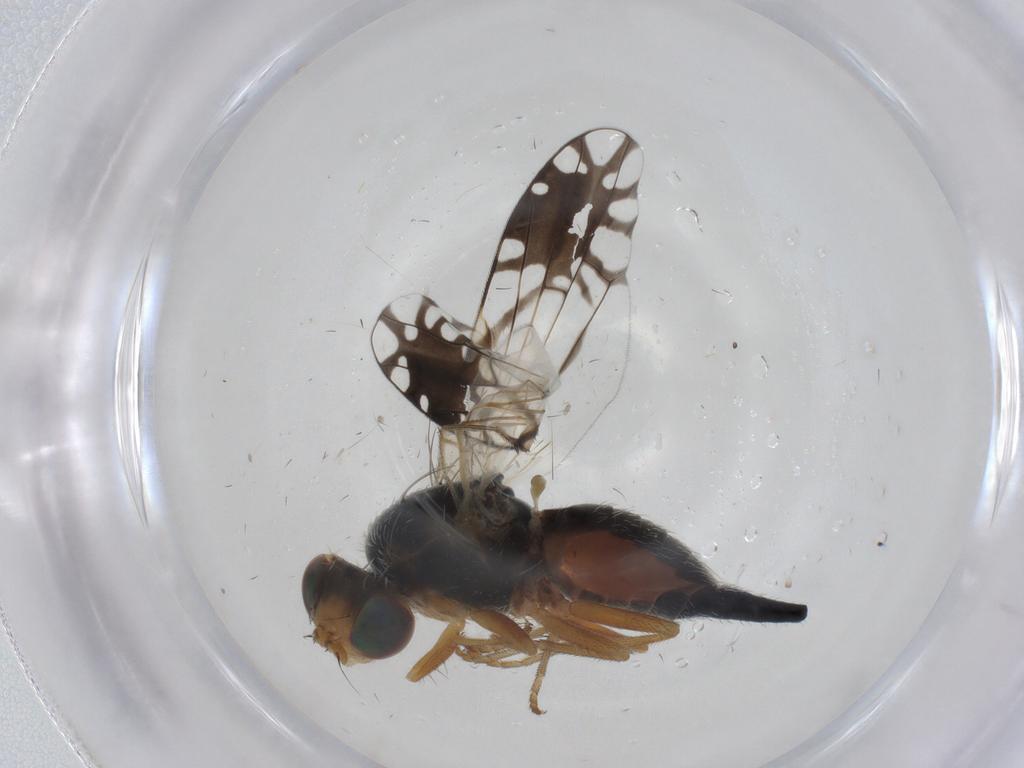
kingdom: Animalia
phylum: Arthropoda
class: Insecta
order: Diptera
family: Tephritidae
